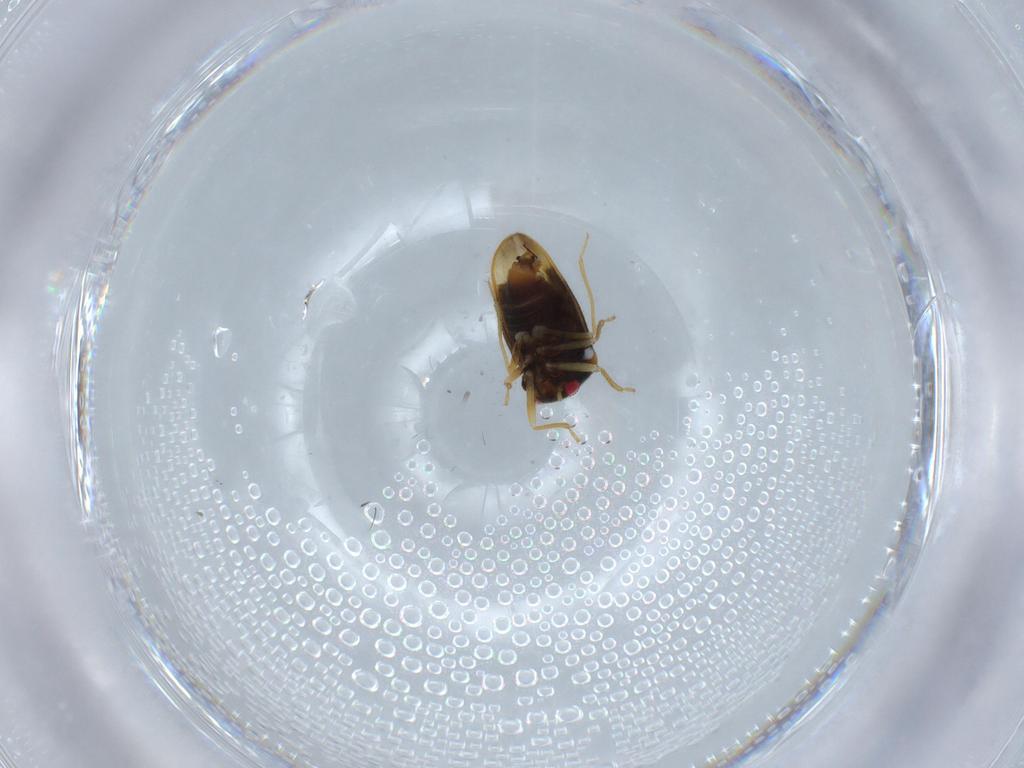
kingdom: Animalia
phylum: Arthropoda
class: Insecta
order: Hemiptera
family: Schizopteridae
